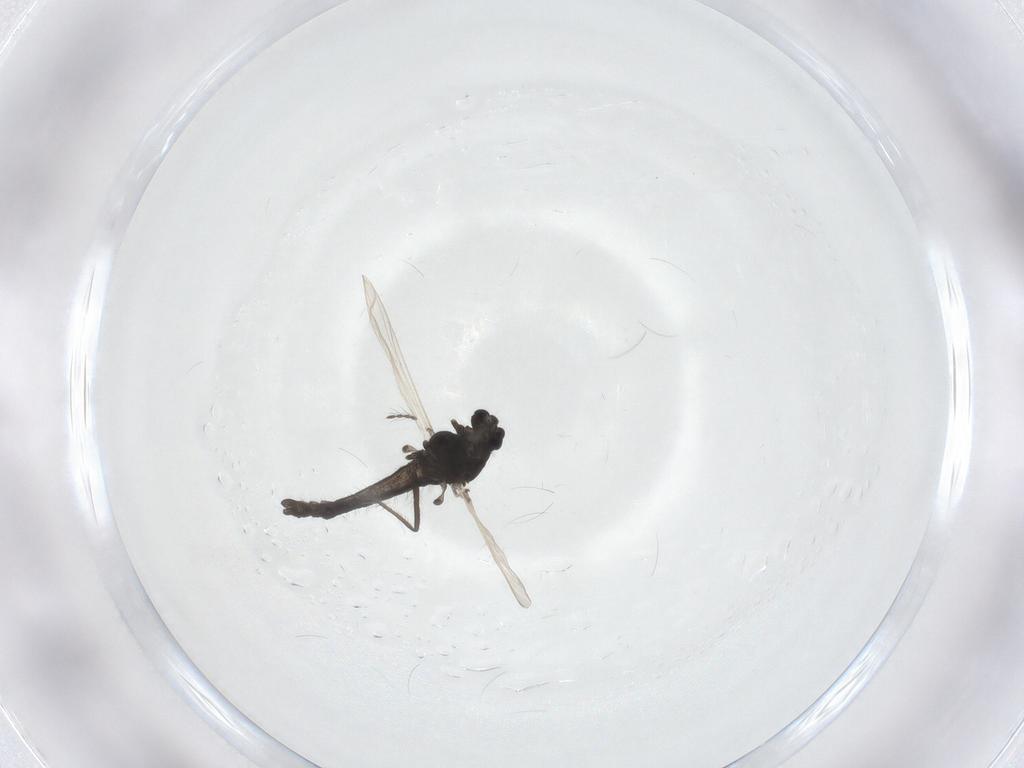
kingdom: Animalia
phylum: Arthropoda
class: Insecta
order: Diptera
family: Chironomidae
